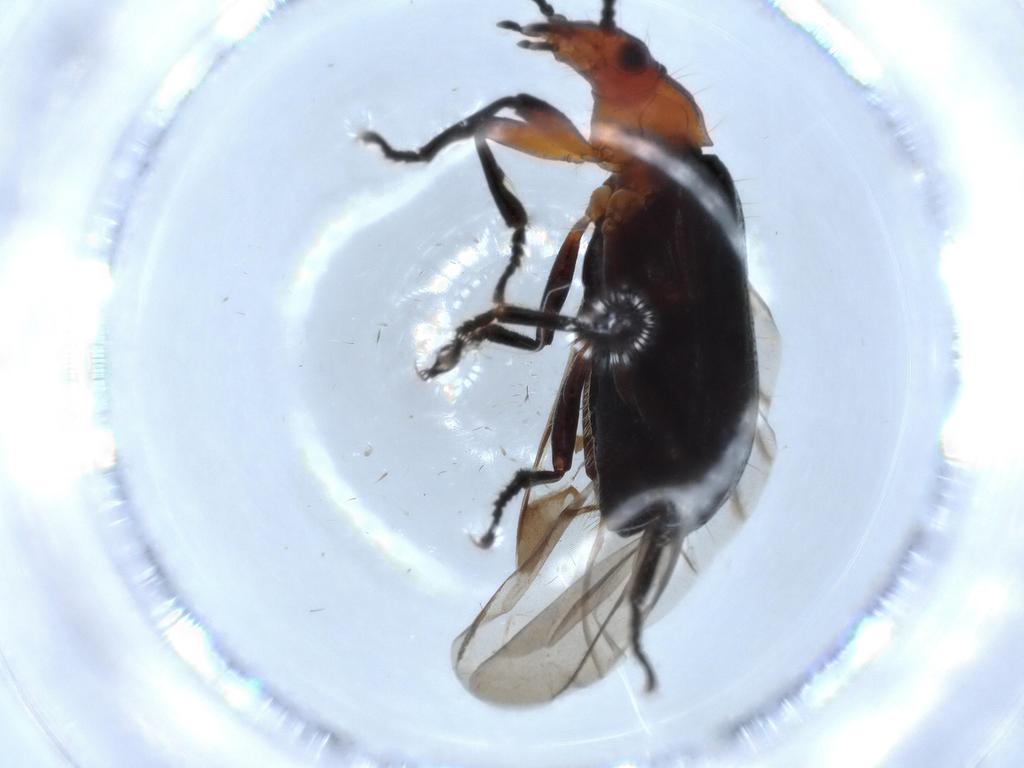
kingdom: Animalia
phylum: Arthropoda
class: Insecta
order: Coleoptera
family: Carabidae
